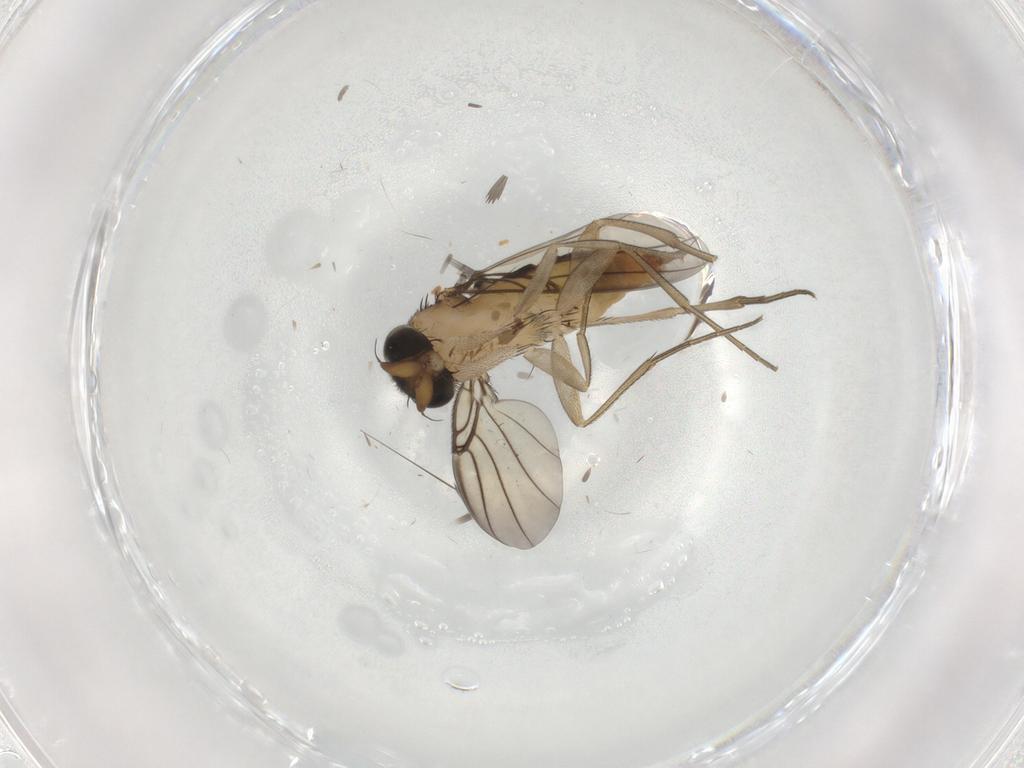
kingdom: Animalia
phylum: Arthropoda
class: Insecta
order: Diptera
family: Phoridae
